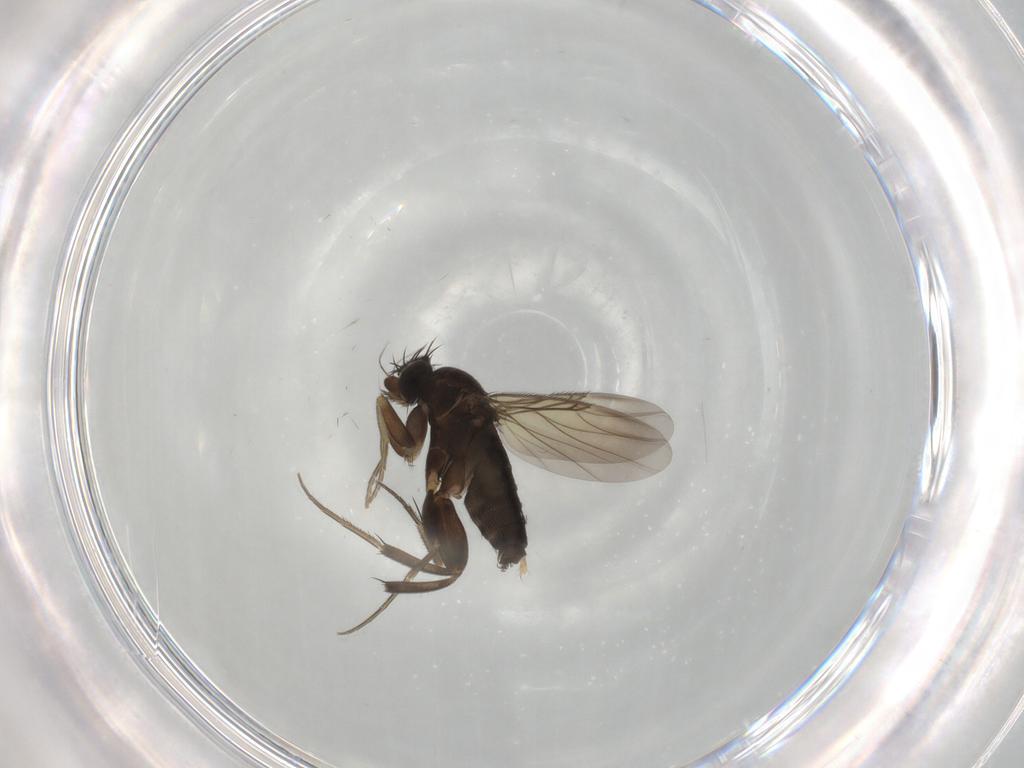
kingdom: Animalia
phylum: Arthropoda
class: Insecta
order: Diptera
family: Phoridae
